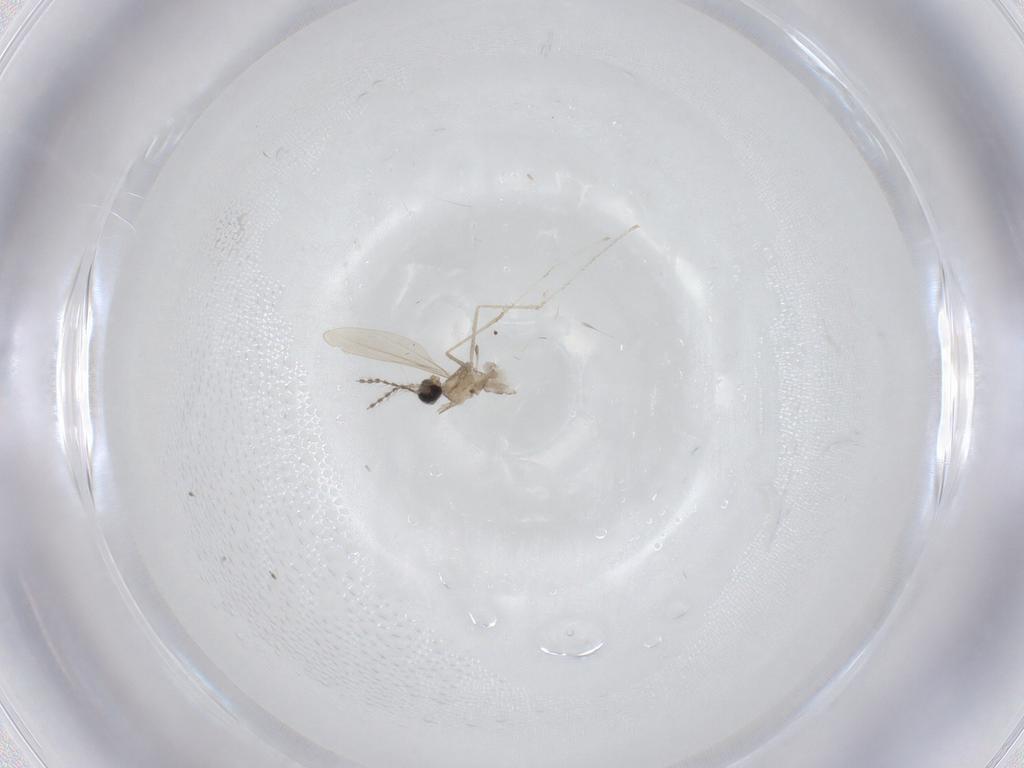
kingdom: Animalia
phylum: Arthropoda
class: Insecta
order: Diptera
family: Cecidomyiidae
